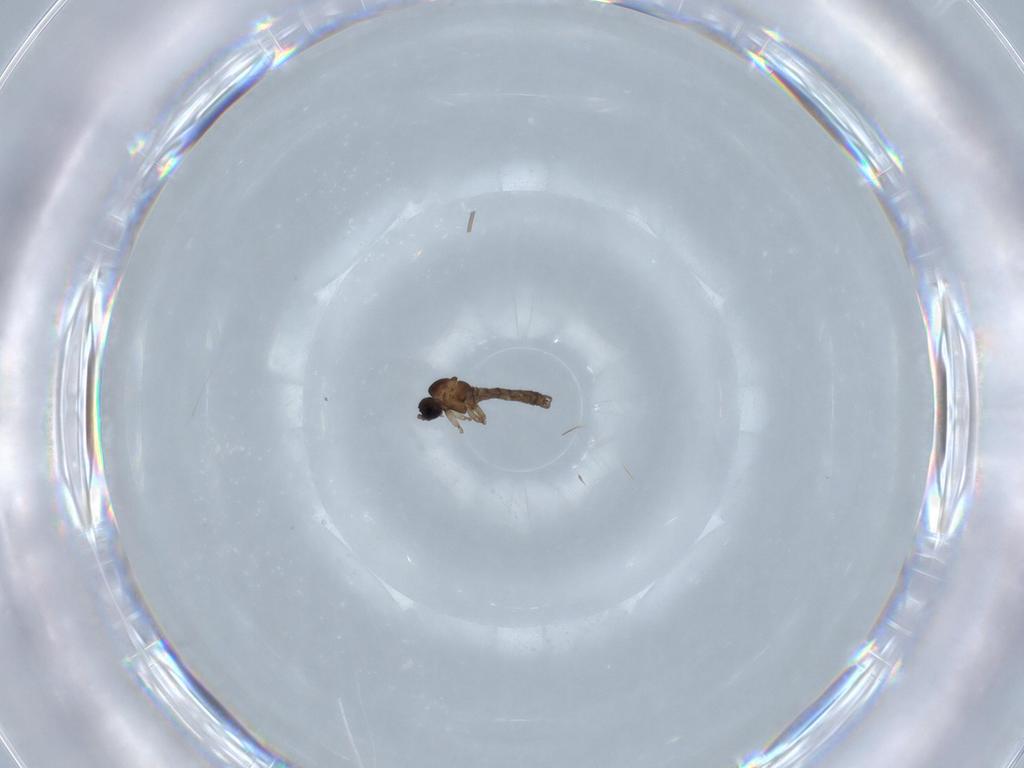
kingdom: Animalia
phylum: Arthropoda
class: Insecta
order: Diptera
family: Sciaridae
